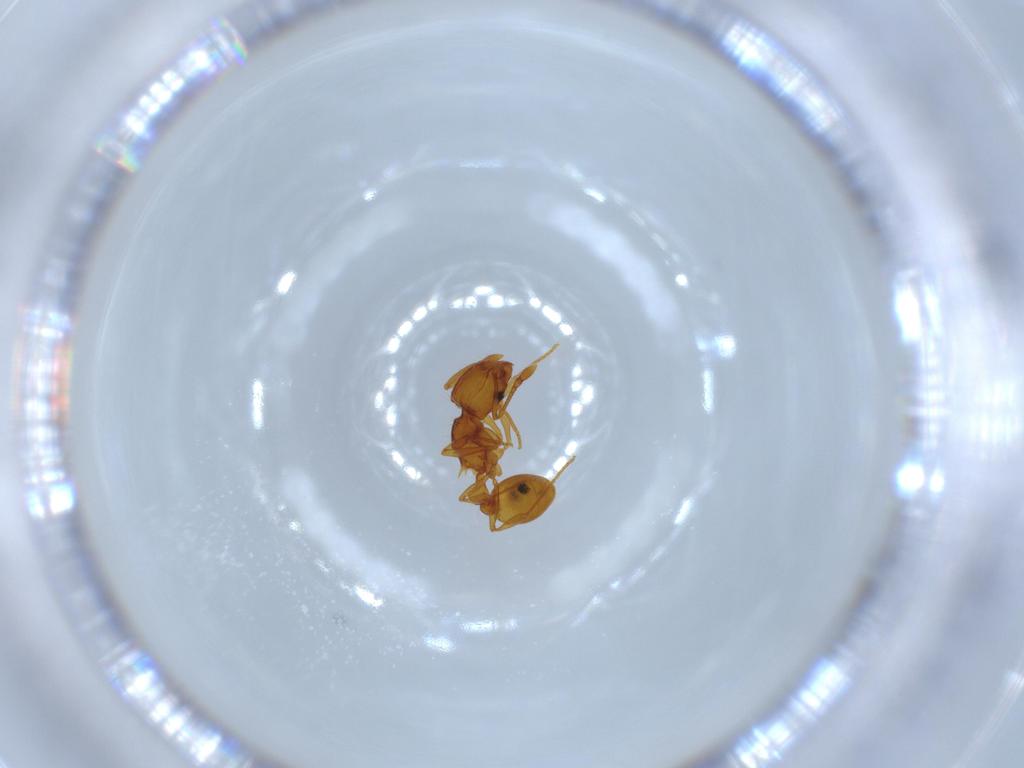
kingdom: Animalia
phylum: Arthropoda
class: Insecta
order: Hymenoptera
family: Formicidae
